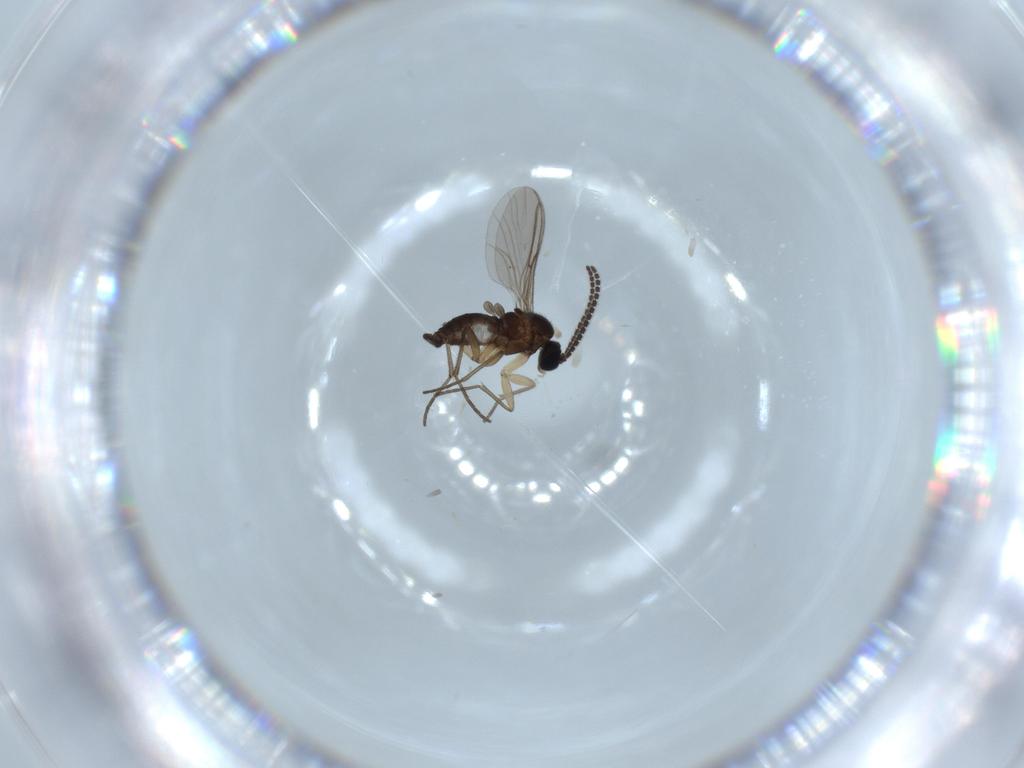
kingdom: Animalia
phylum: Arthropoda
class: Insecta
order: Diptera
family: Sciaridae
